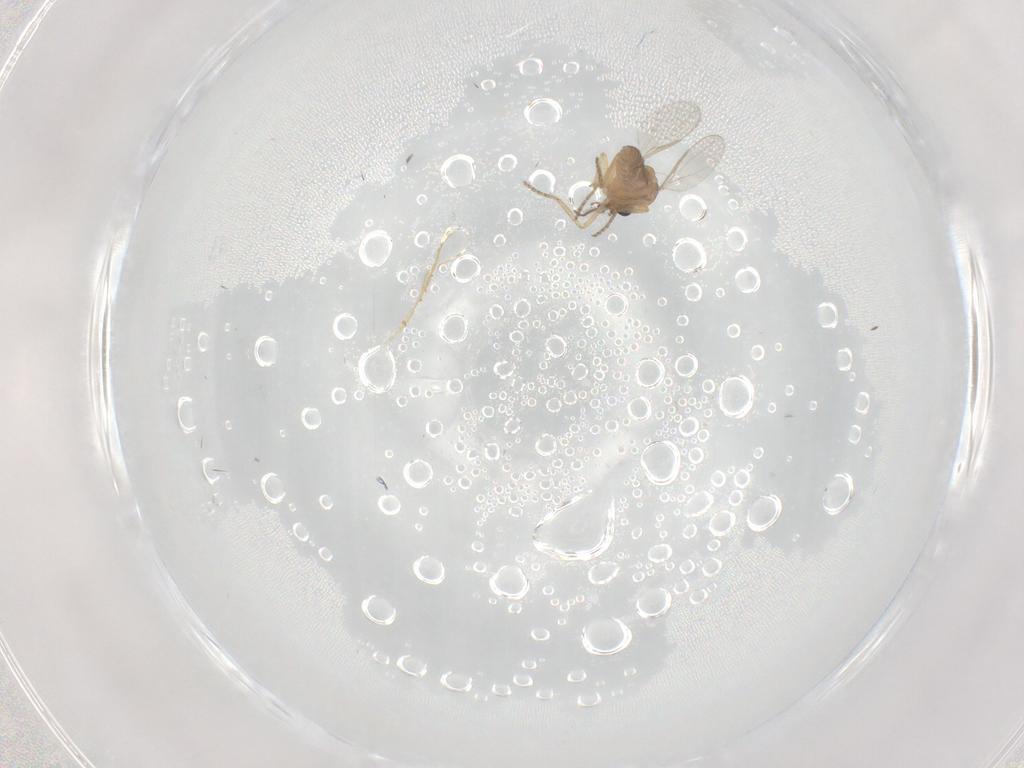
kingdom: Animalia
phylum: Arthropoda
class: Insecta
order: Diptera
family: Ceratopogonidae
